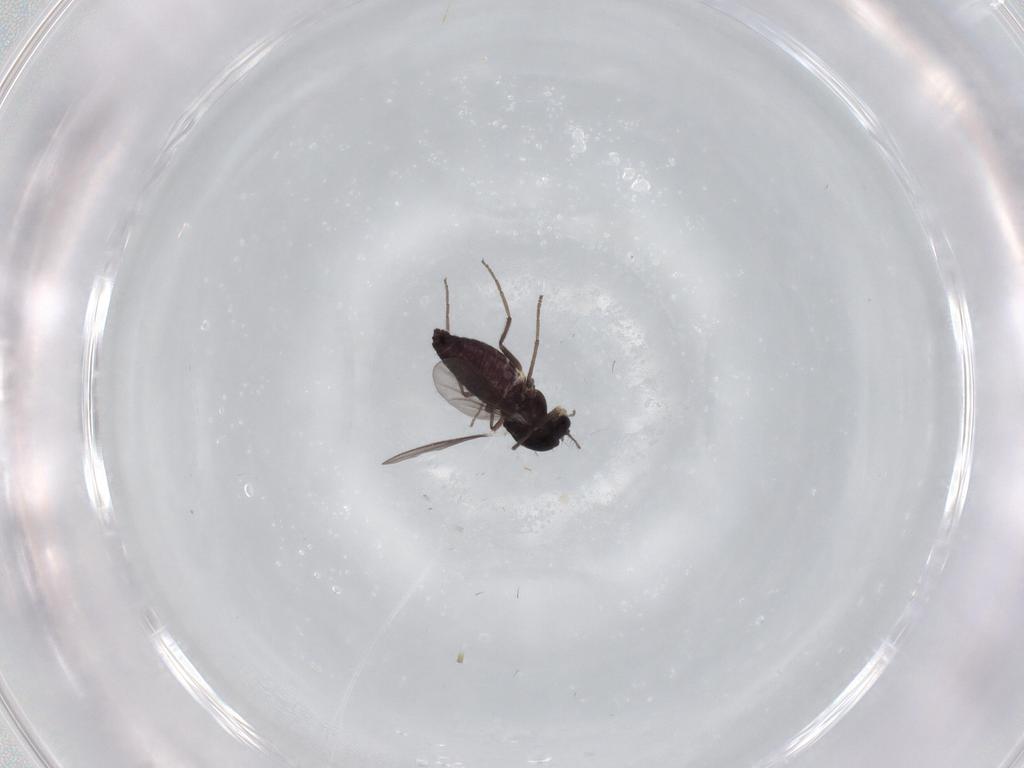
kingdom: Animalia
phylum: Arthropoda
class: Insecta
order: Diptera
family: Chironomidae
